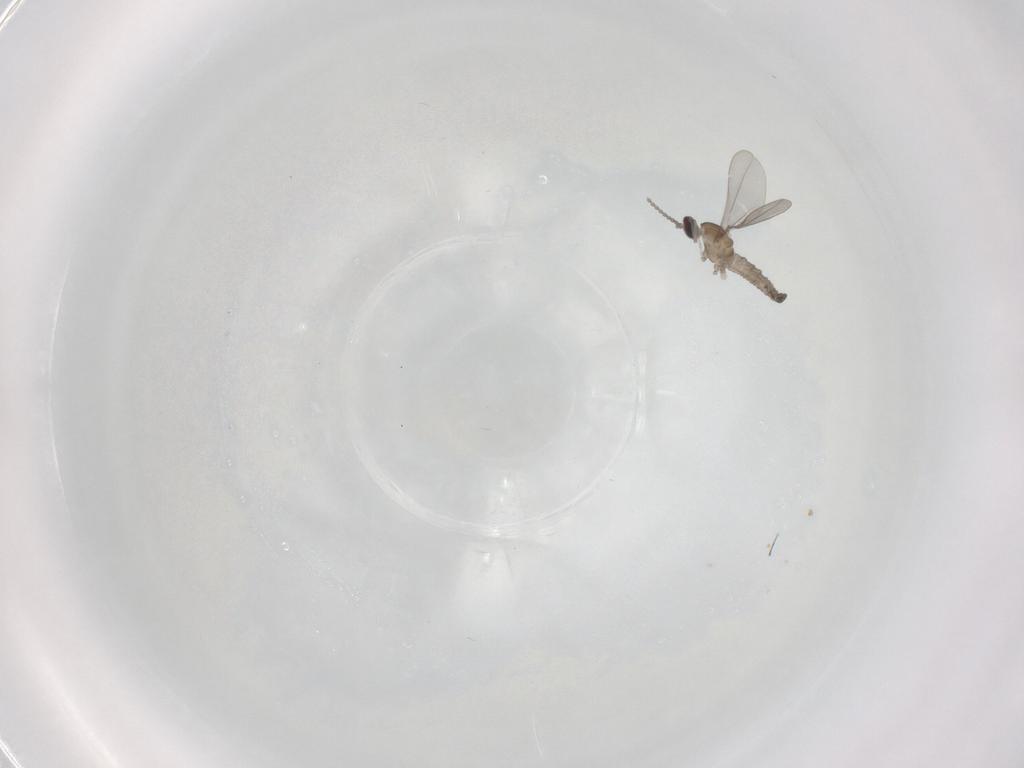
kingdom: Animalia
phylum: Arthropoda
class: Insecta
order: Diptera
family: Cecidomyiidae
